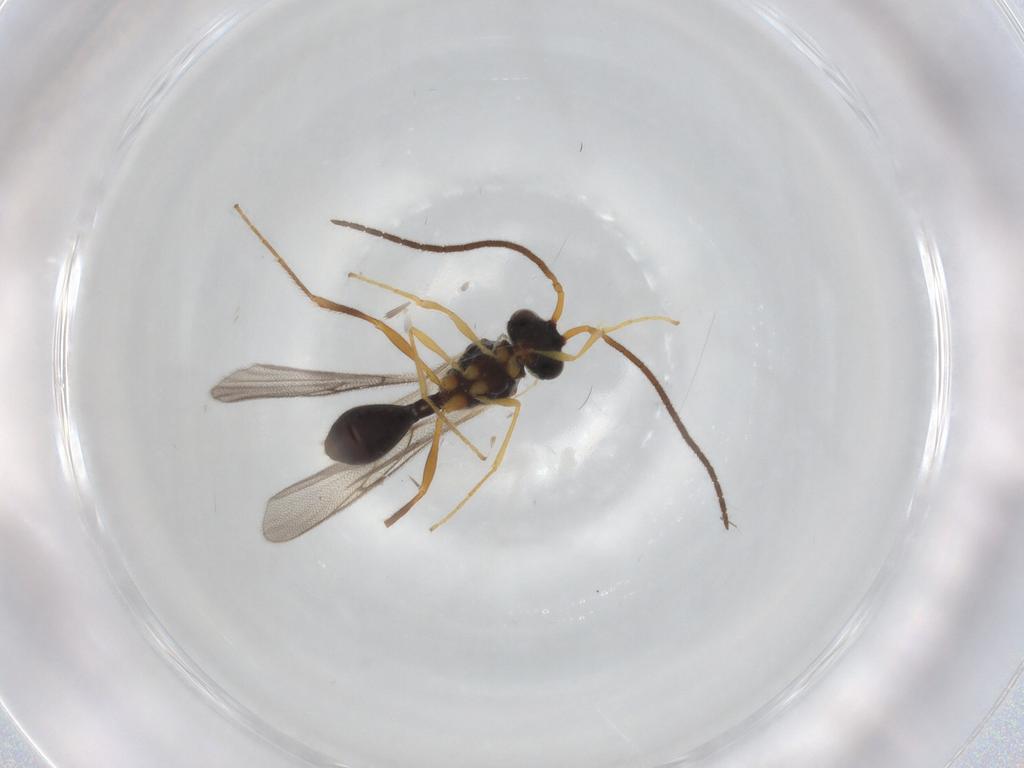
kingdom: Animalia
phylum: Arthropoda
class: Insecta
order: Hymenoptera
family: Diapriidae
